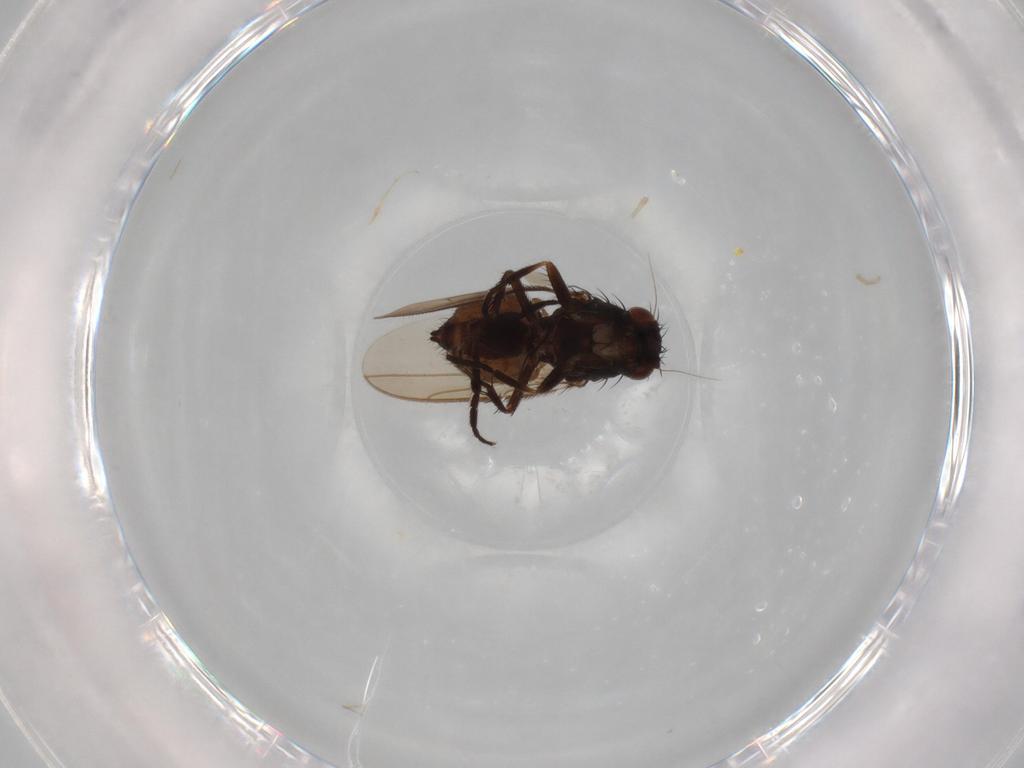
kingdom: Animalia
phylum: Arthropoda
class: Insecta
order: Diptera
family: Sphaeroceridae
